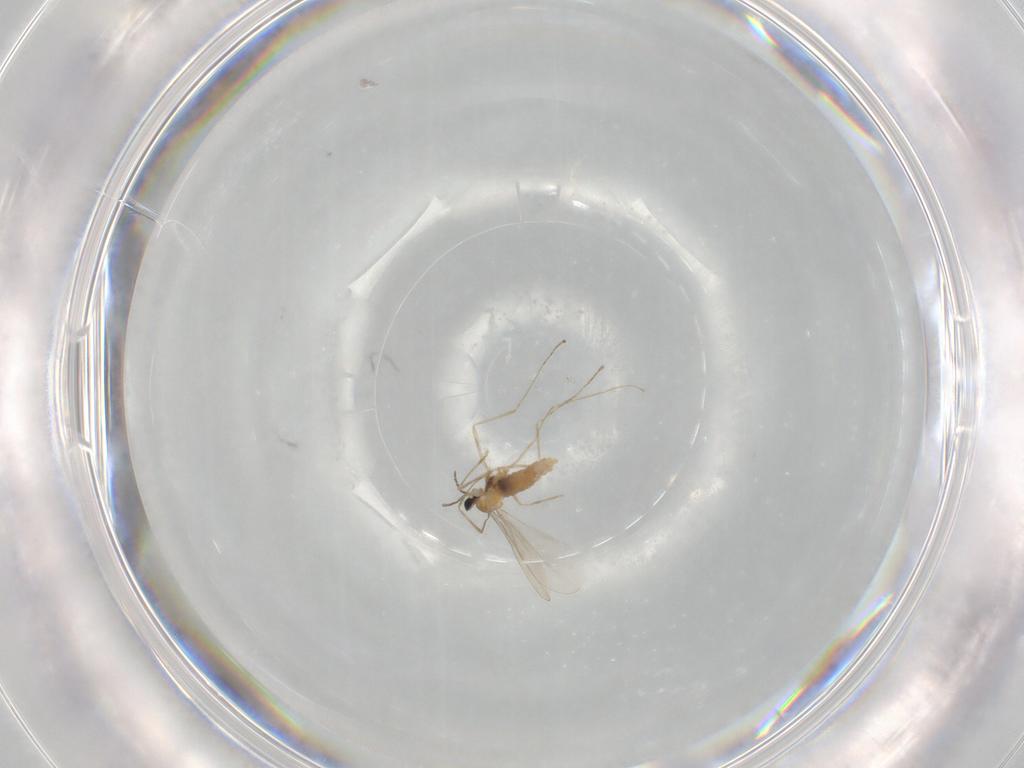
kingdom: Animalia
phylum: Arthropoda
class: Insecta
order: Diptera
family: Cecidomyiidae
